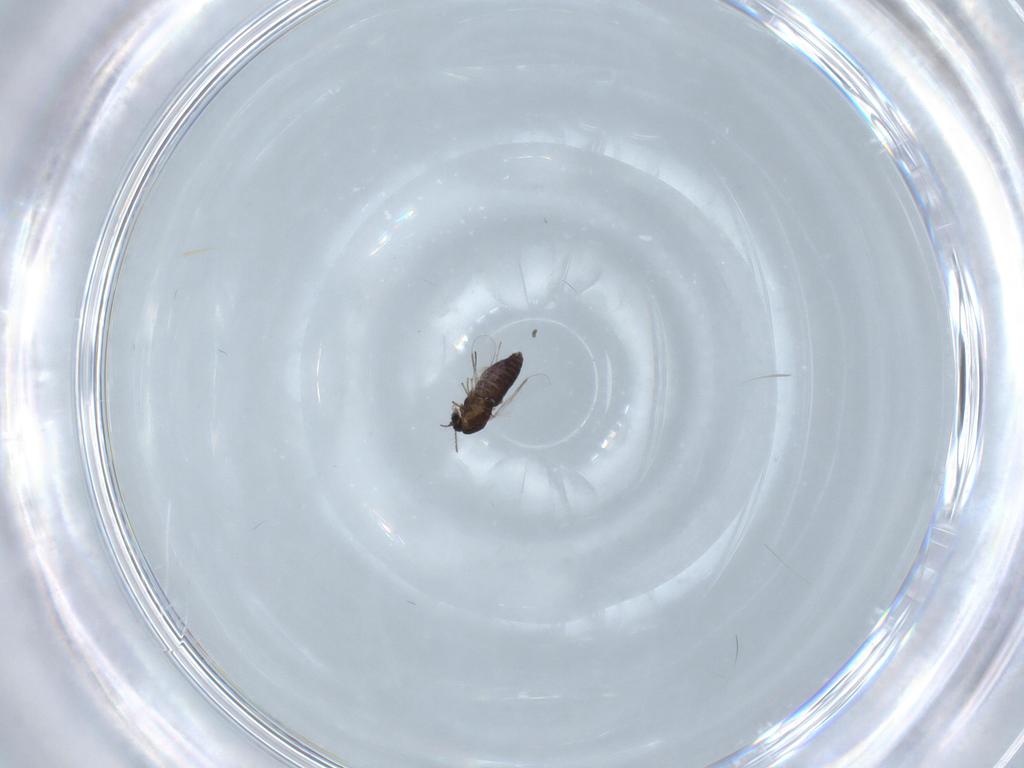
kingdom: Animalia
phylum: Arthropoda
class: Insecta
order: Diptera
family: Chironomidae
